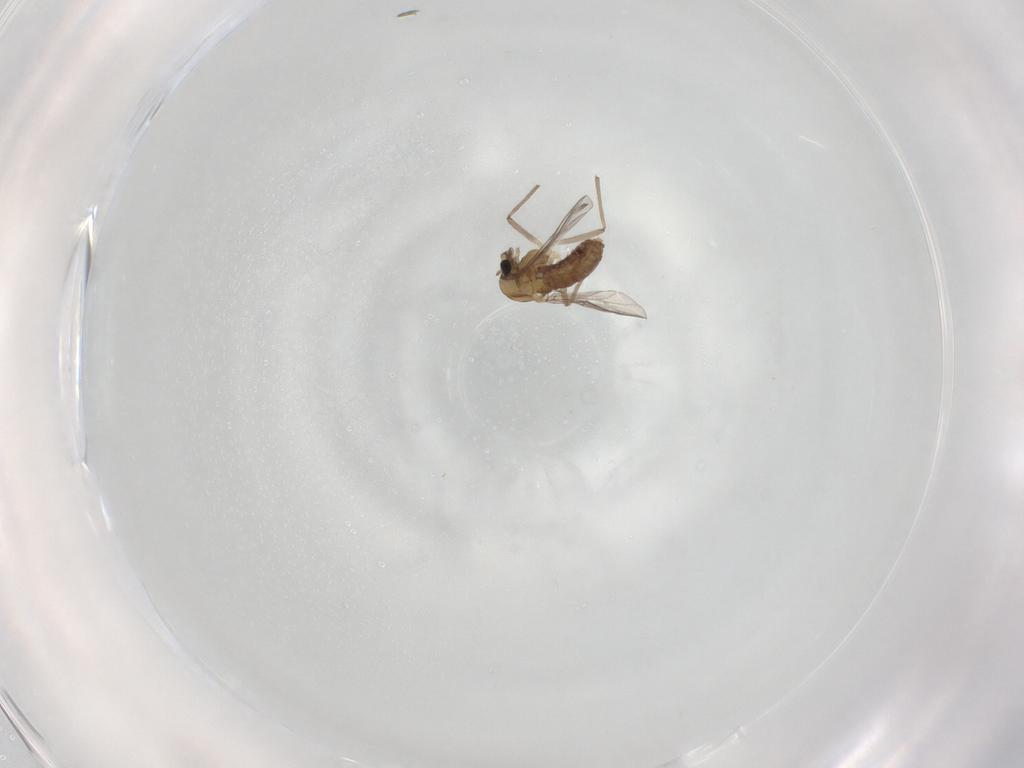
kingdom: Animalia
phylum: Arthropoda
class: Insecta
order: Diptera
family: Chironomidae
